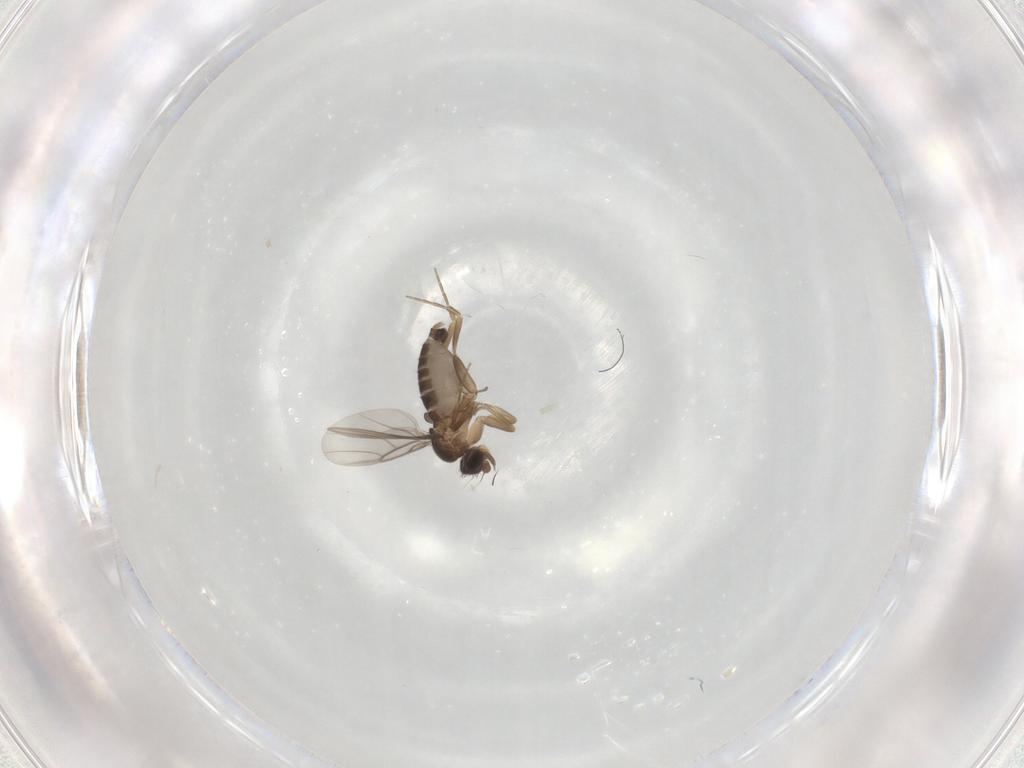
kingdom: Animalia
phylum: Arthropoda
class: Insecta
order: Diptera
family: Phoridae
